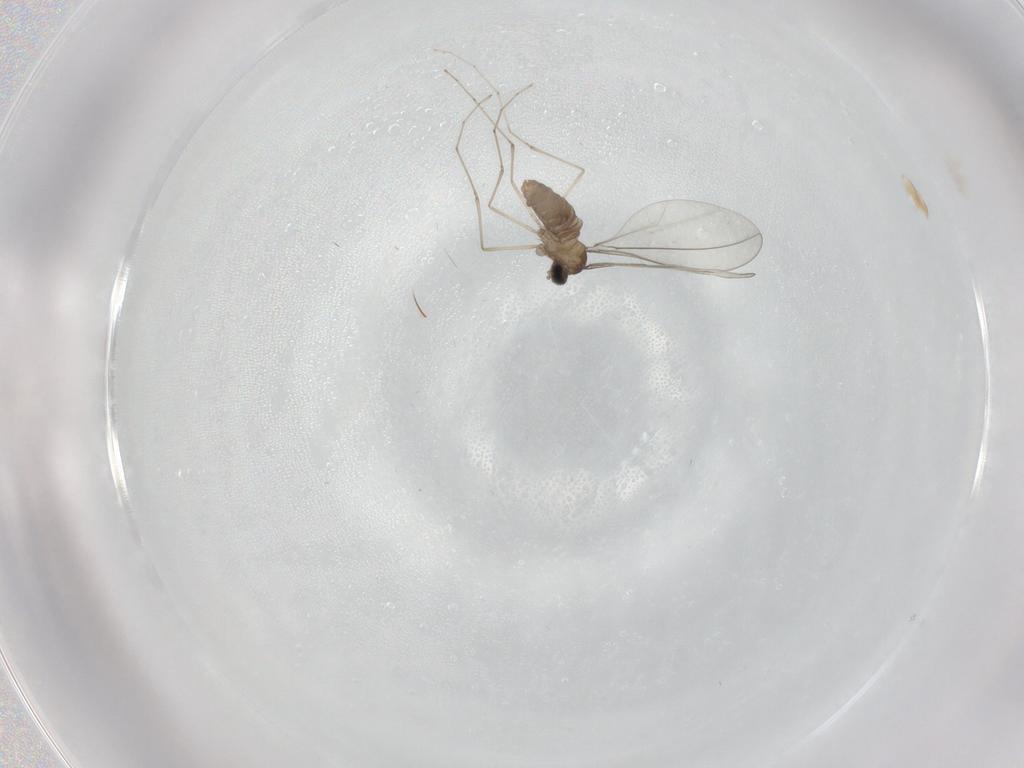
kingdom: Animalia
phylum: Arthropoda
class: Insecta
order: Diptera
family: Cecidomyiidae
